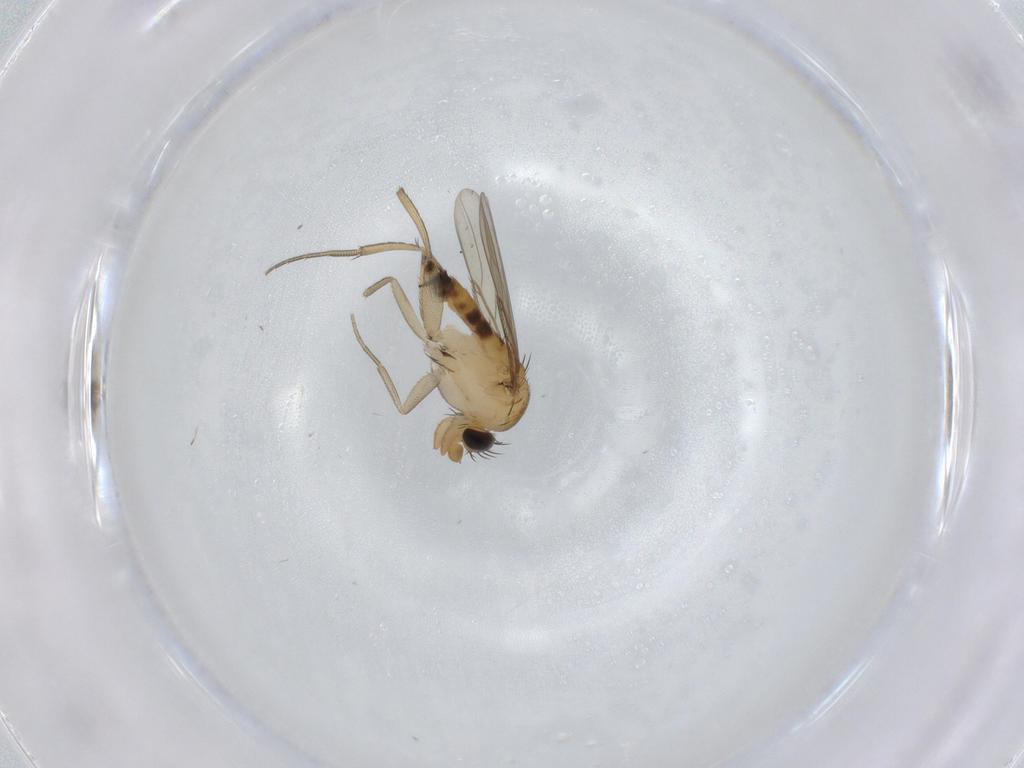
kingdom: Animalia
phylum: Arthropoda
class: Insecta
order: Diptera
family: Phoridae
